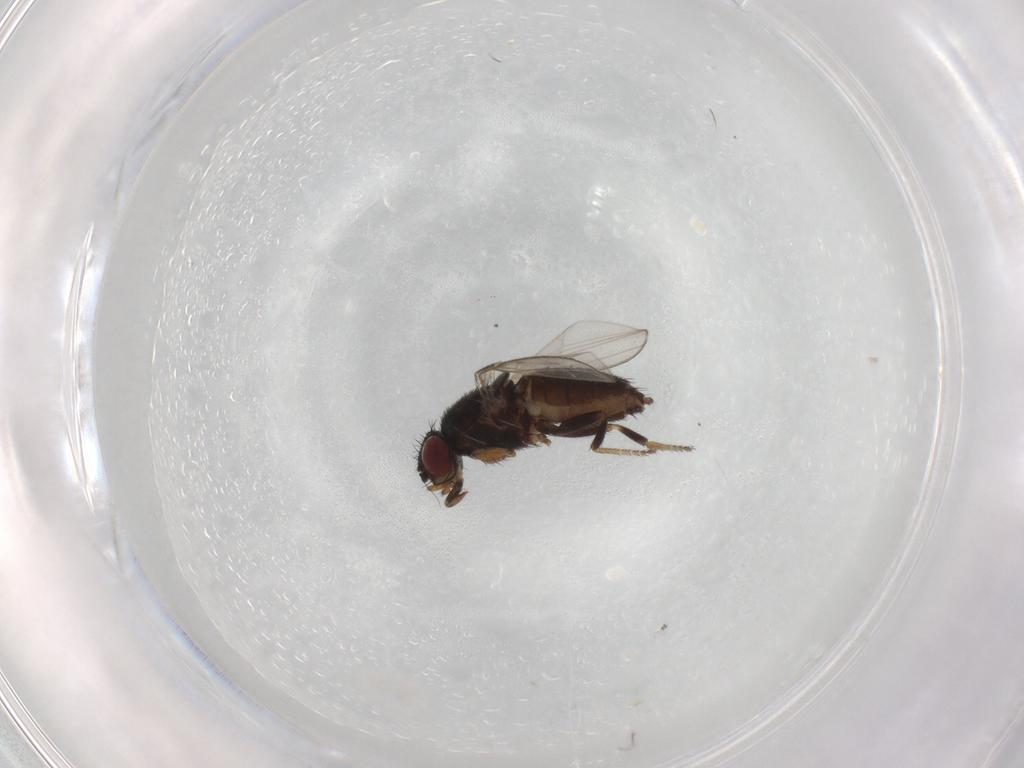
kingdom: Animalia
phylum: Arthropoda
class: Insecta
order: Diptera
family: Milichiidae
